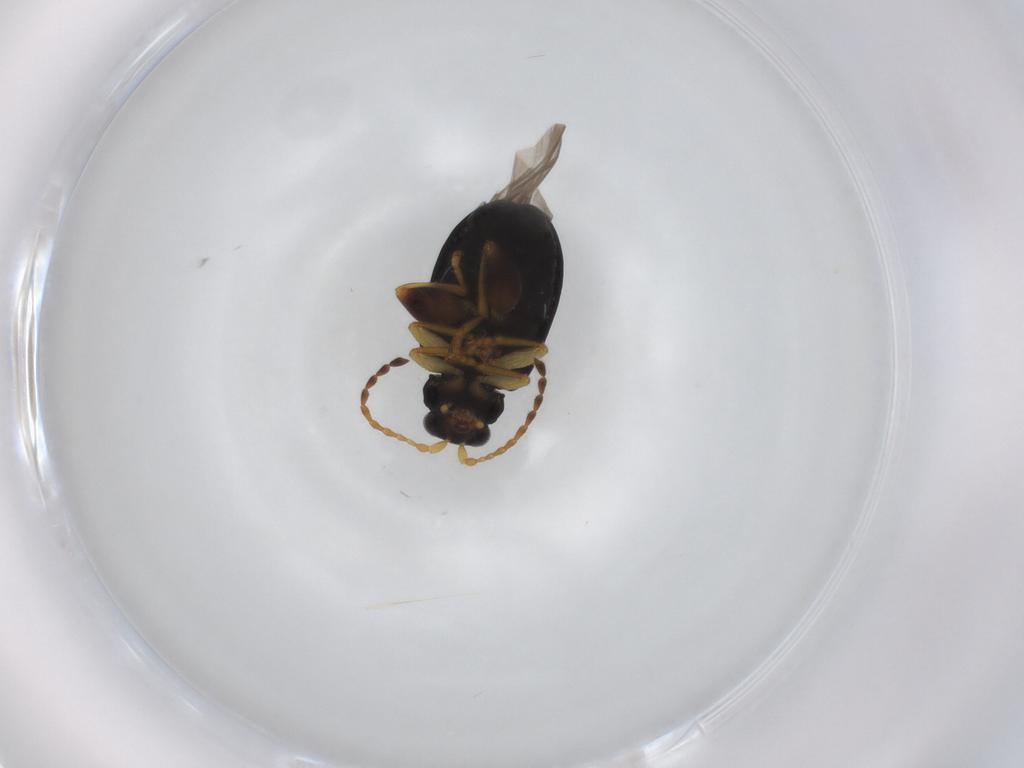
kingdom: Animalia
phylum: Arthropoda
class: Insecta
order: Coleoptera
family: Chrysomelidae
